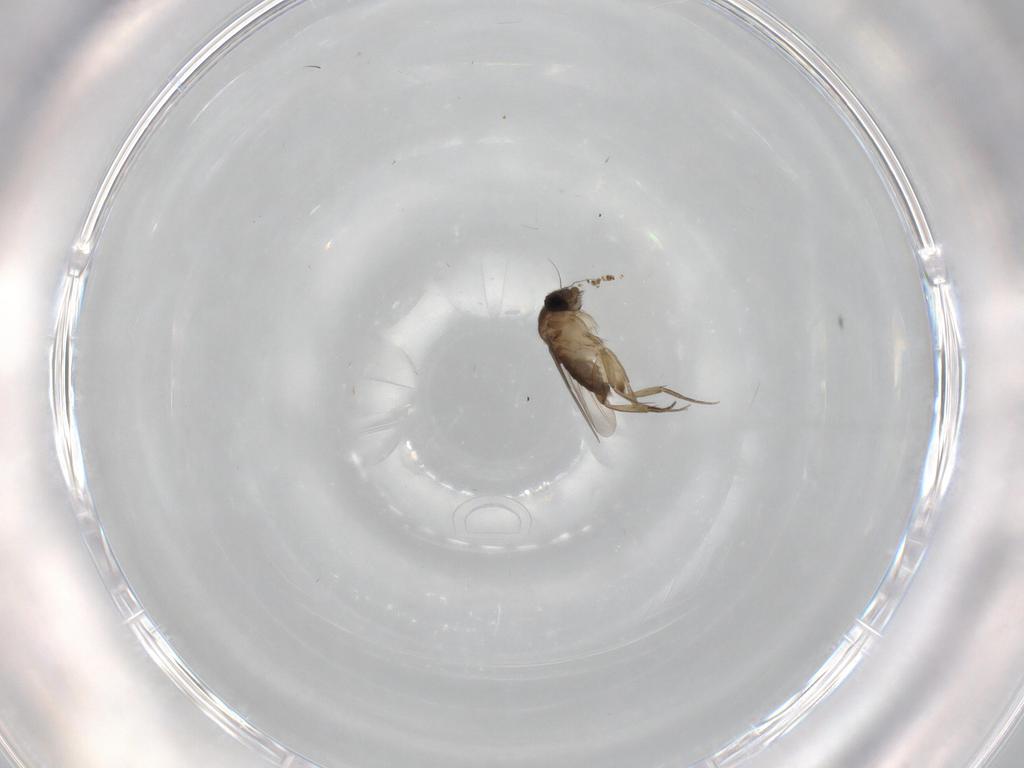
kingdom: Animalia
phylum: Arthropoda
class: Insecta
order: Diptera
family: Phoridae
